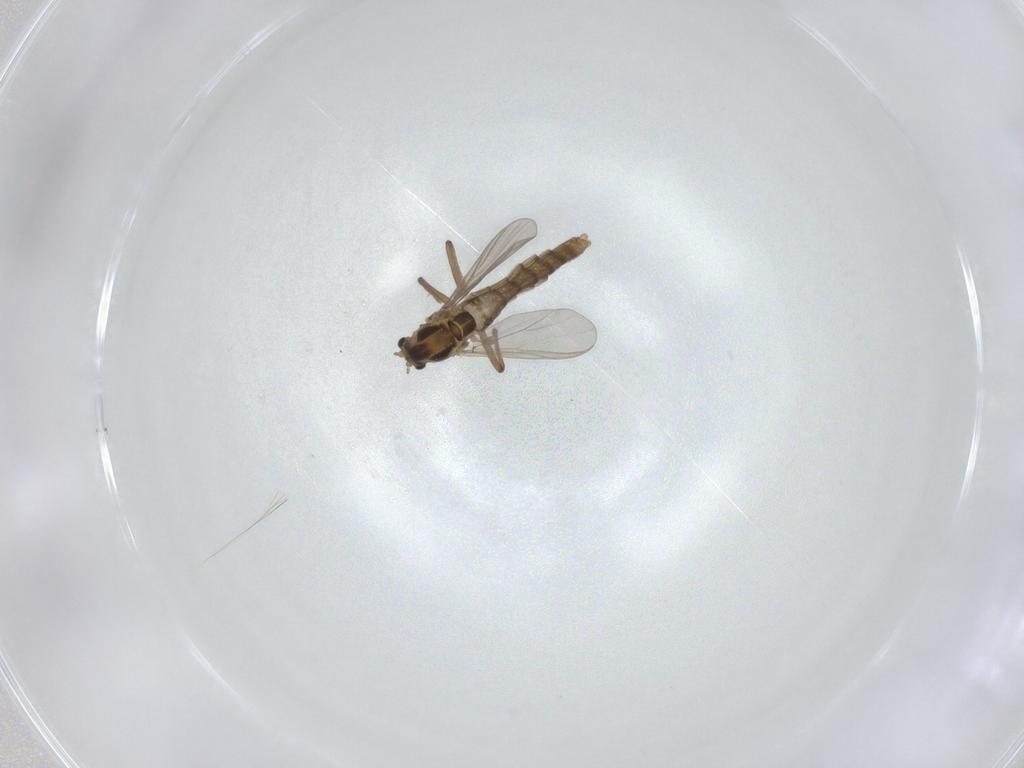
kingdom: Animalia
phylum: Arthropoda
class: Insecta
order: Diptera
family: Chironomidae
